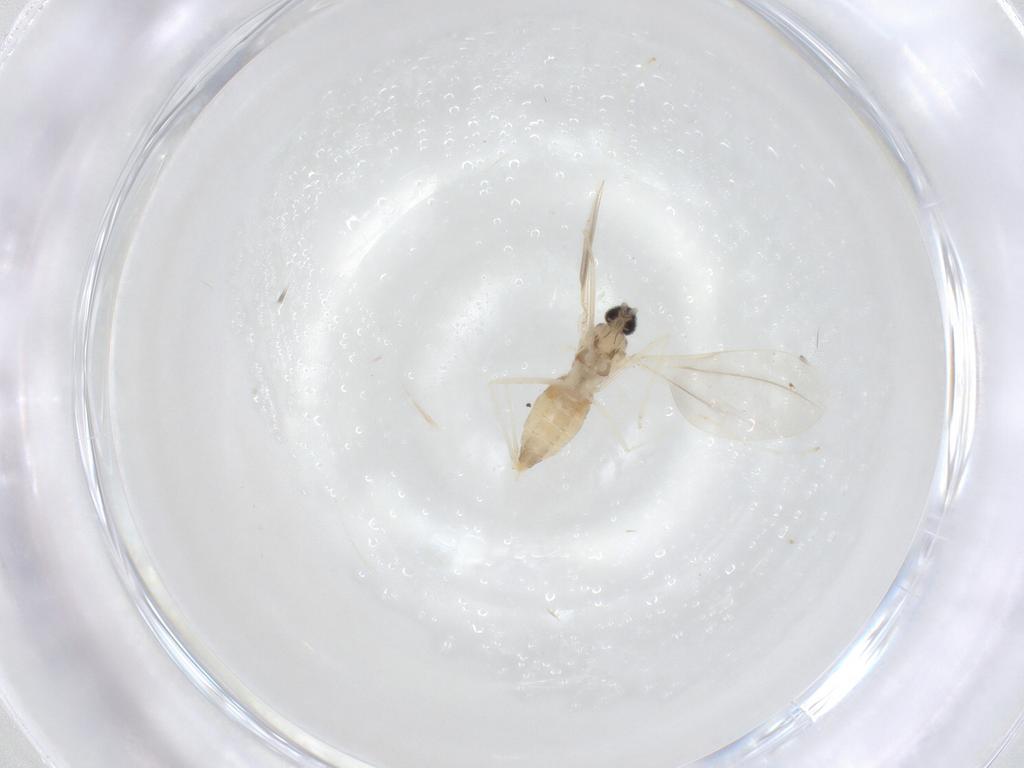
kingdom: Animalia
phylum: Arthropoda
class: Insecta
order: Diptera
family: Cecidomyiidae
